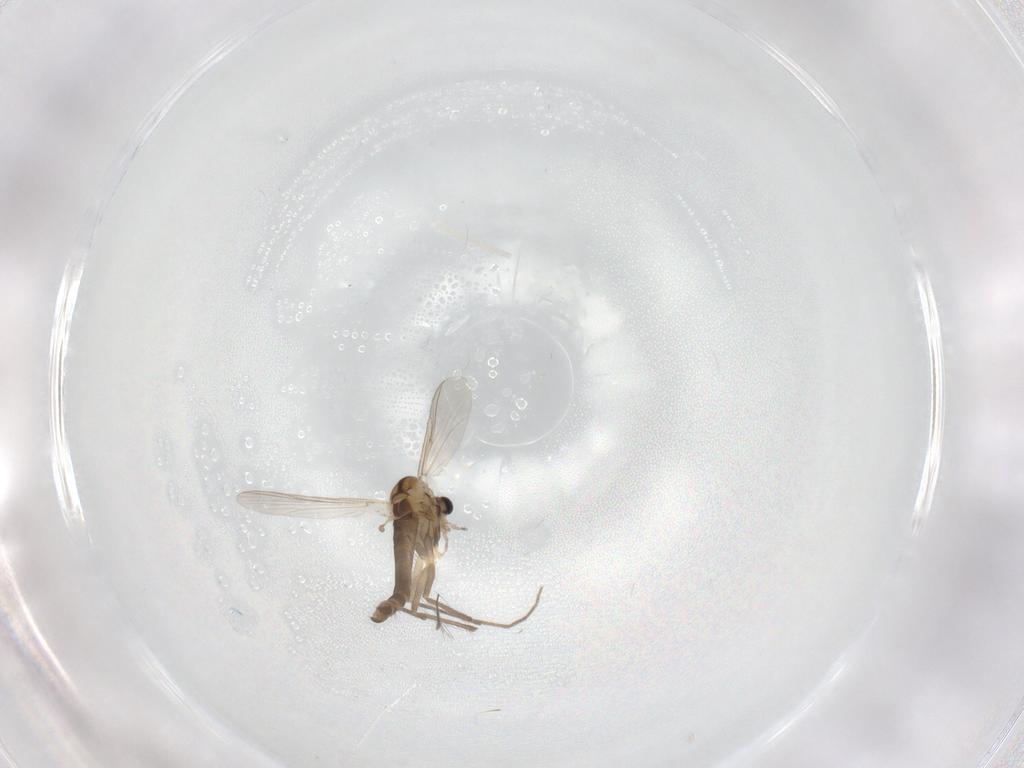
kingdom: Animalia
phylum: Arthropoda
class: Insecta
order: Diptera
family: Chironomidae
